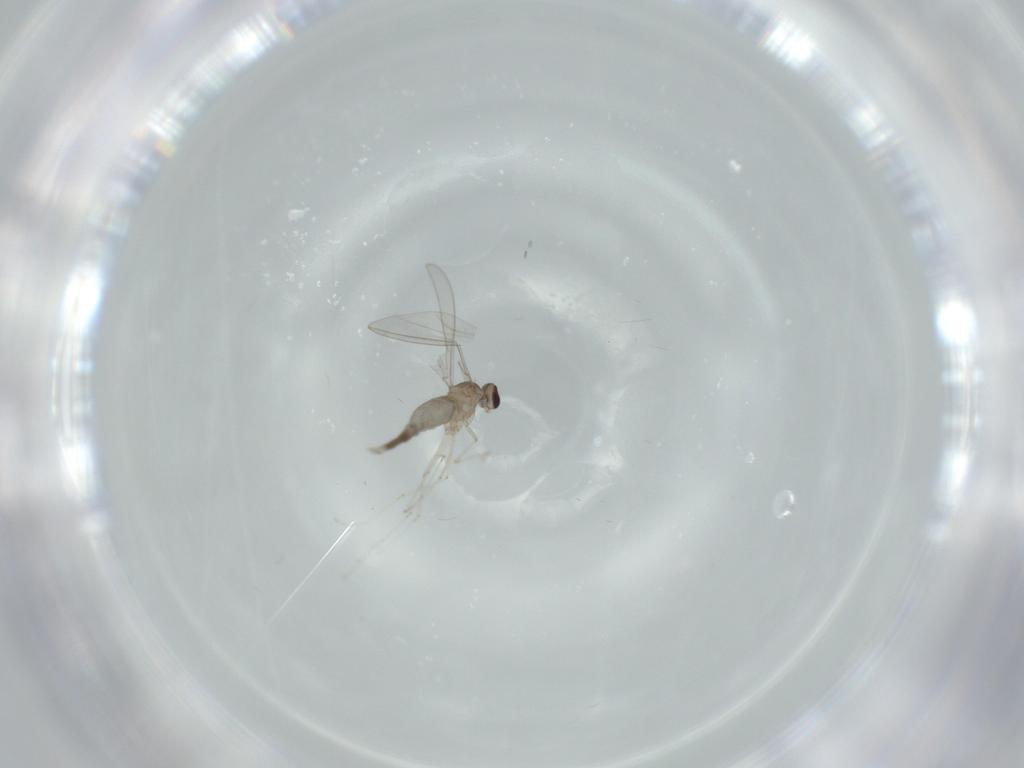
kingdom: Animalia
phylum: Arthropoda
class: Insecta
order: Diptera
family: Cecidomyiidae
